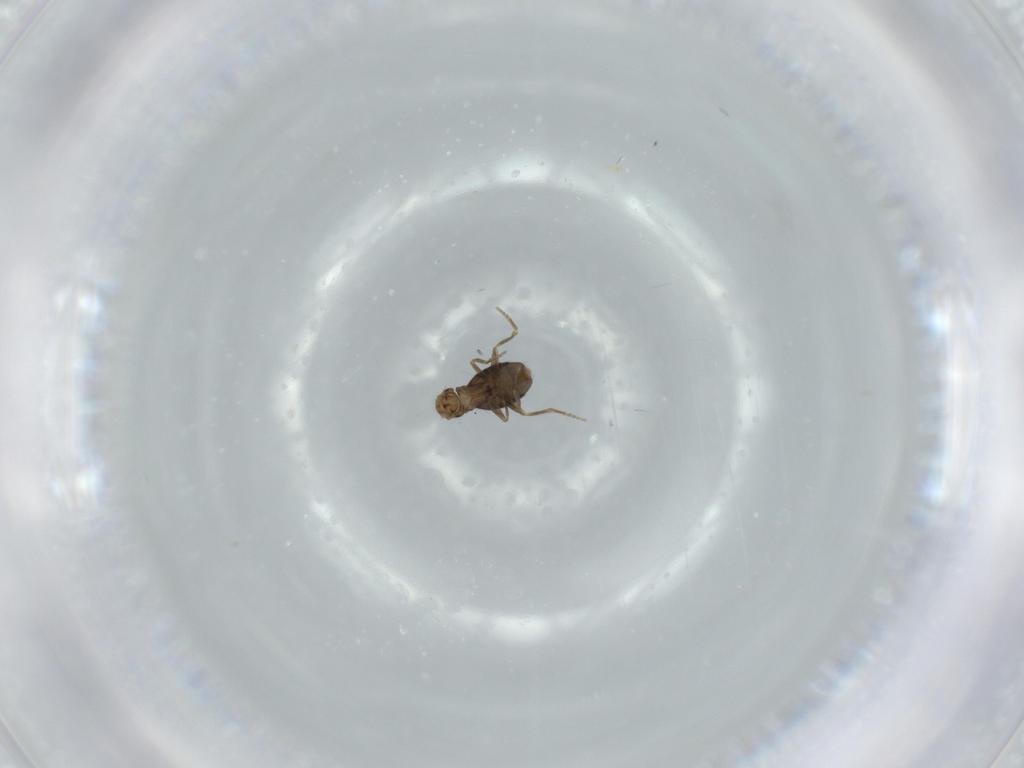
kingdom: Animalia
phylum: Arthropoda
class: Insecta
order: Diptera
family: Phoridae
